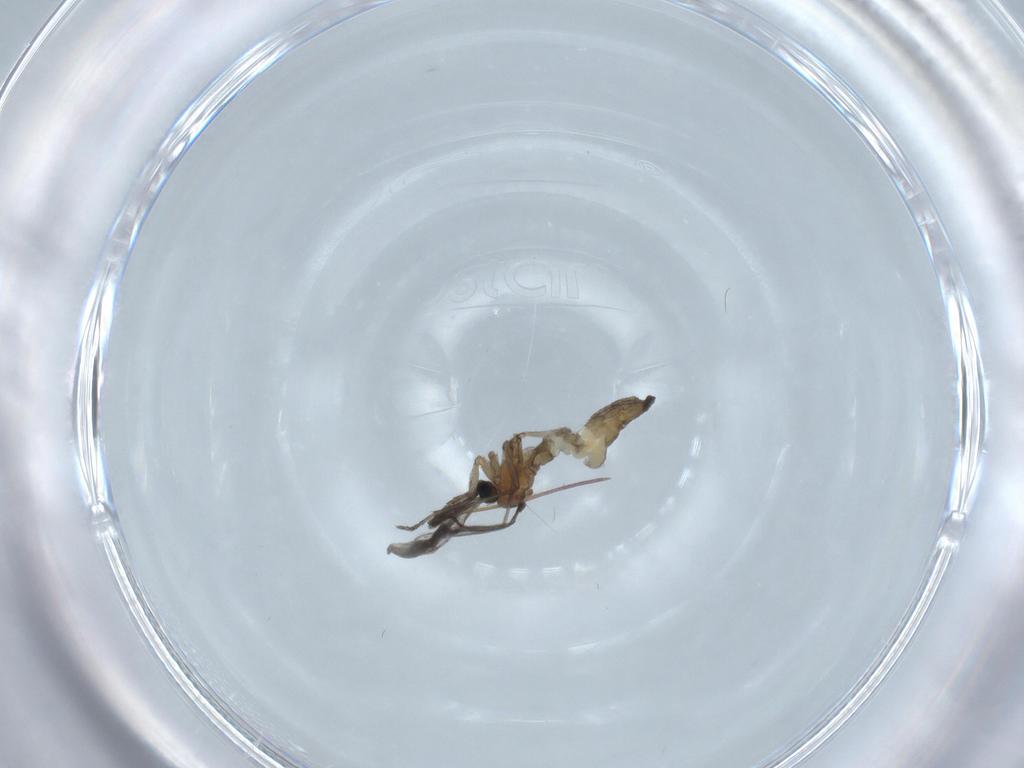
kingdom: Animalia
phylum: Arthropoda
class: Insecta
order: Diptera
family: Sciaridae
